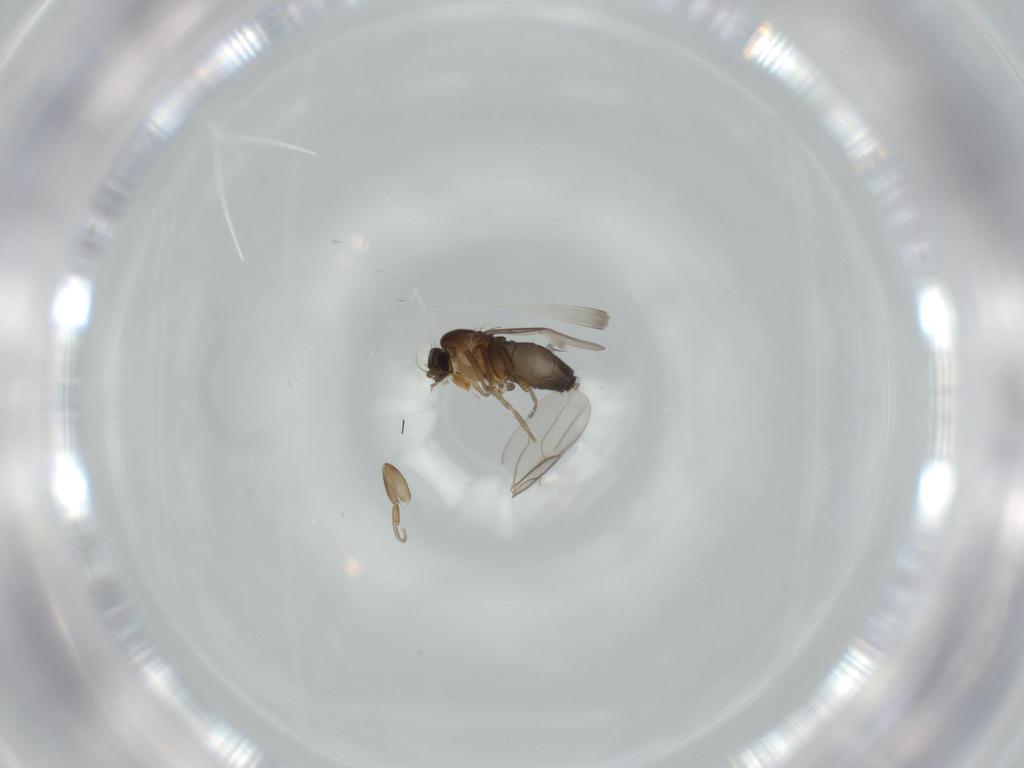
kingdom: Animalia
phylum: Arthropoda
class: Insecta
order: Diptera
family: Phoridae
